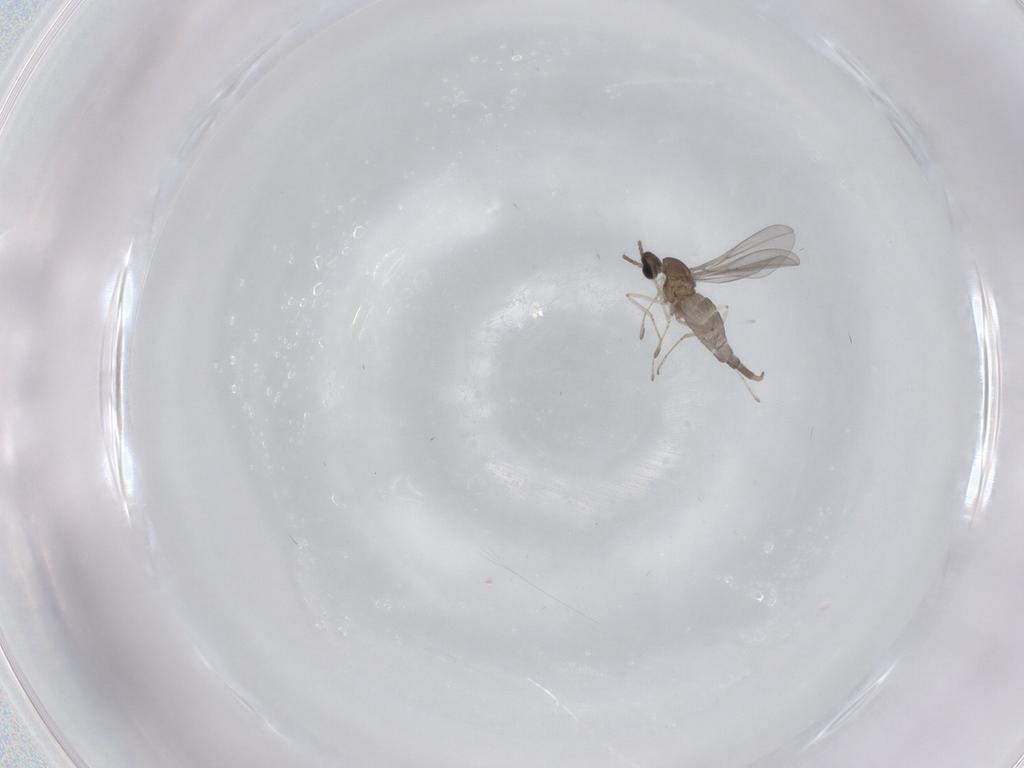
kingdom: Animalia
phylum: Arthropoda
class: Insecta
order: Diptera
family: Cecidomyiidae
